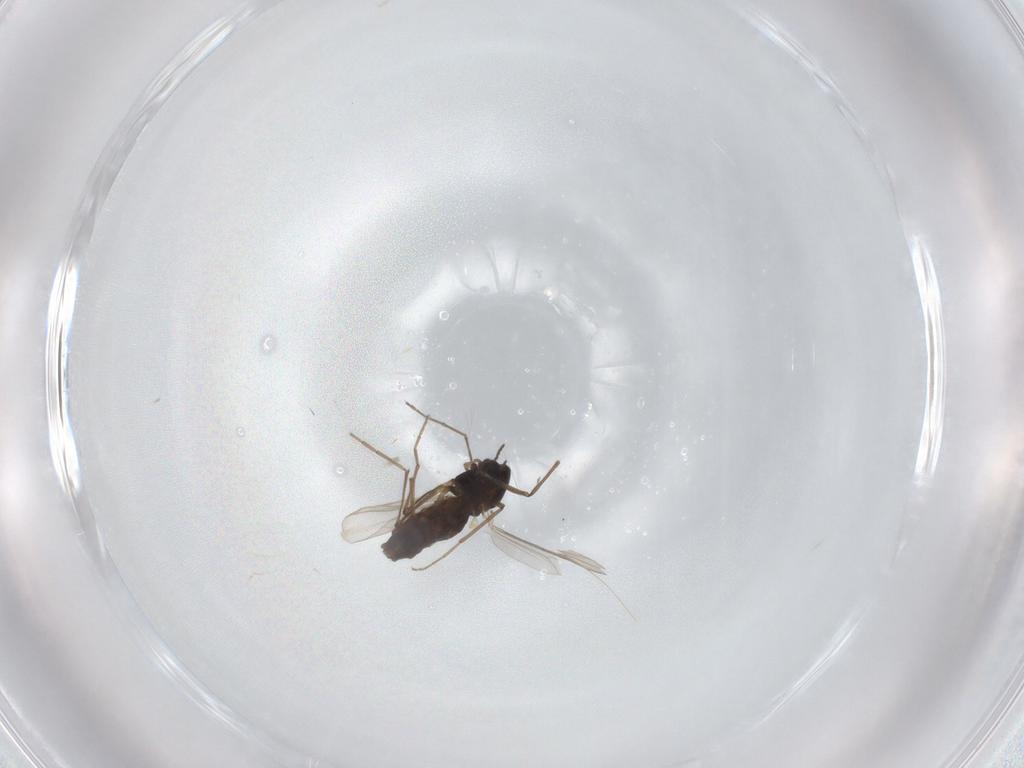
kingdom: Animalia
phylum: Arthropoda
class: Insecta
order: Diptera
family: Chironomidae
